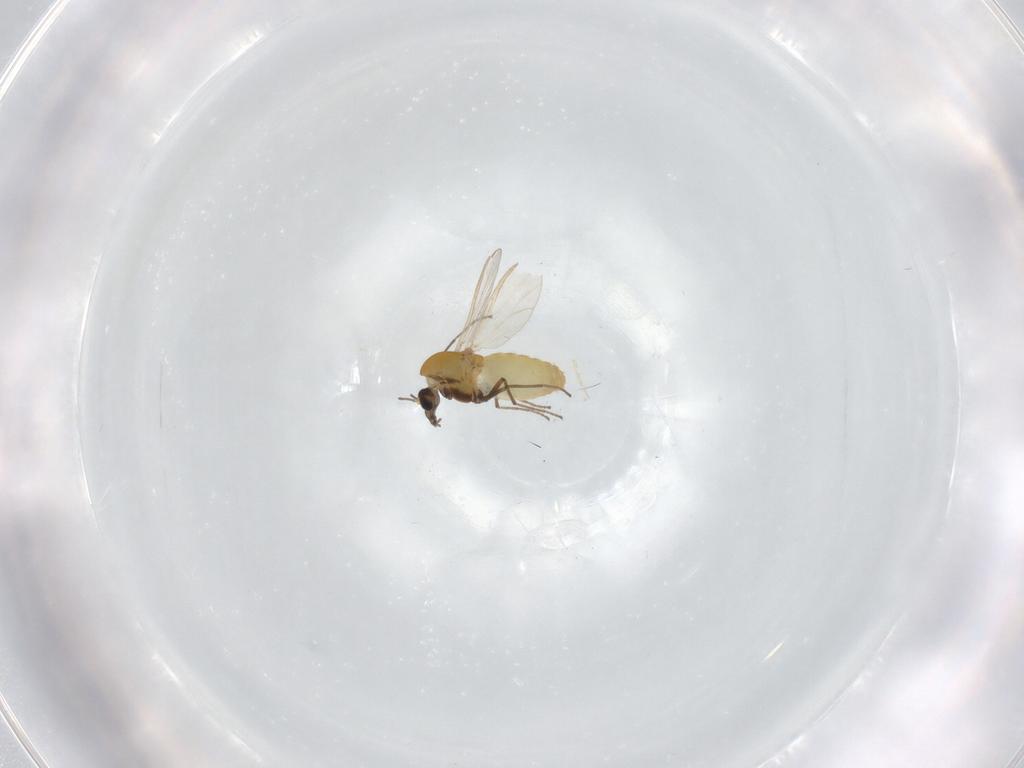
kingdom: Animalia
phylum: Arthropoda
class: Insecta
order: Diptera
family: Chironomidae
